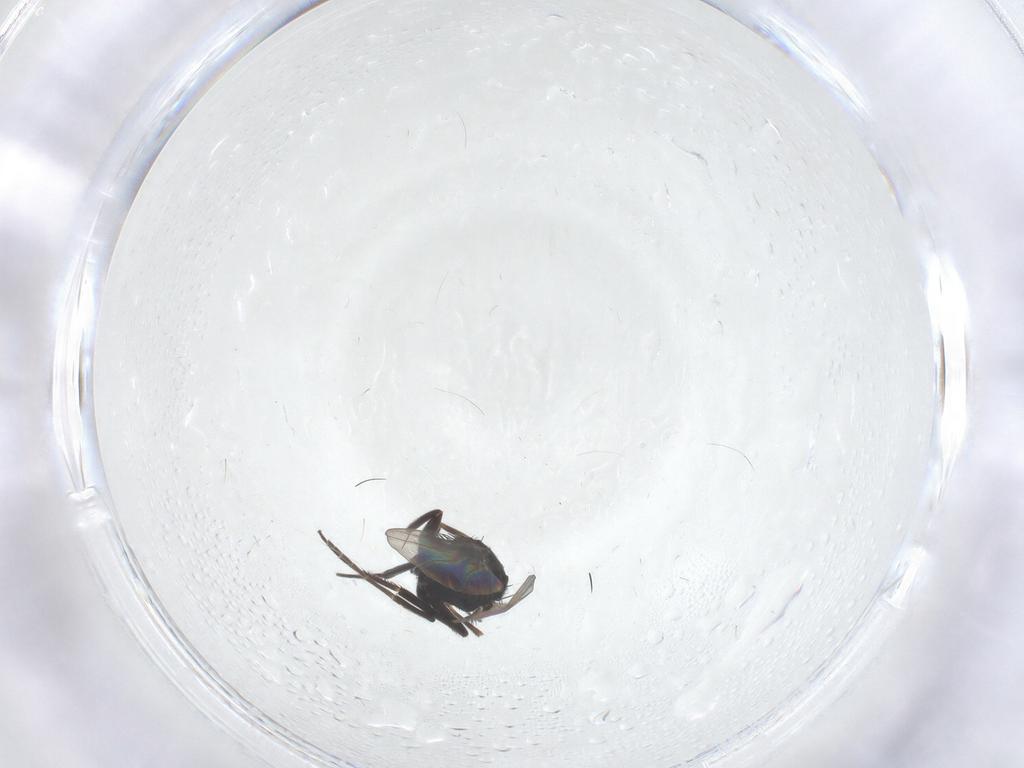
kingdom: Animalia
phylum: Arthropoda
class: Insecta
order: Diptera
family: Phoridae
